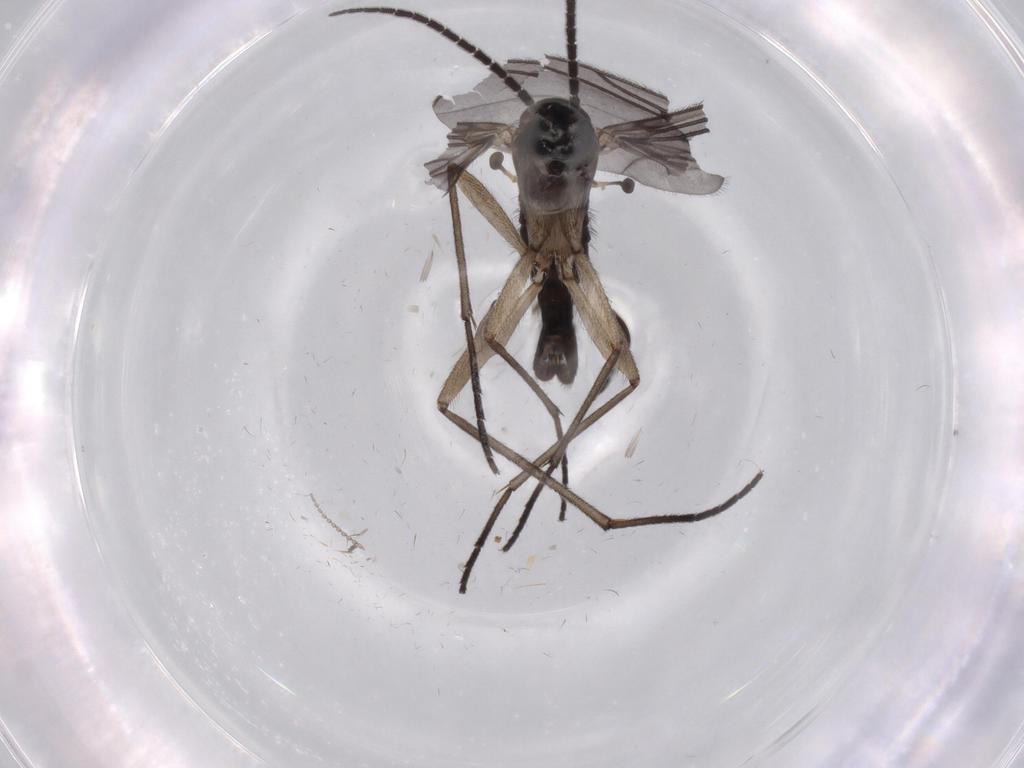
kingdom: Animalia
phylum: Arthropoda
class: Insecta
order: Diptera
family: Sciaridae
